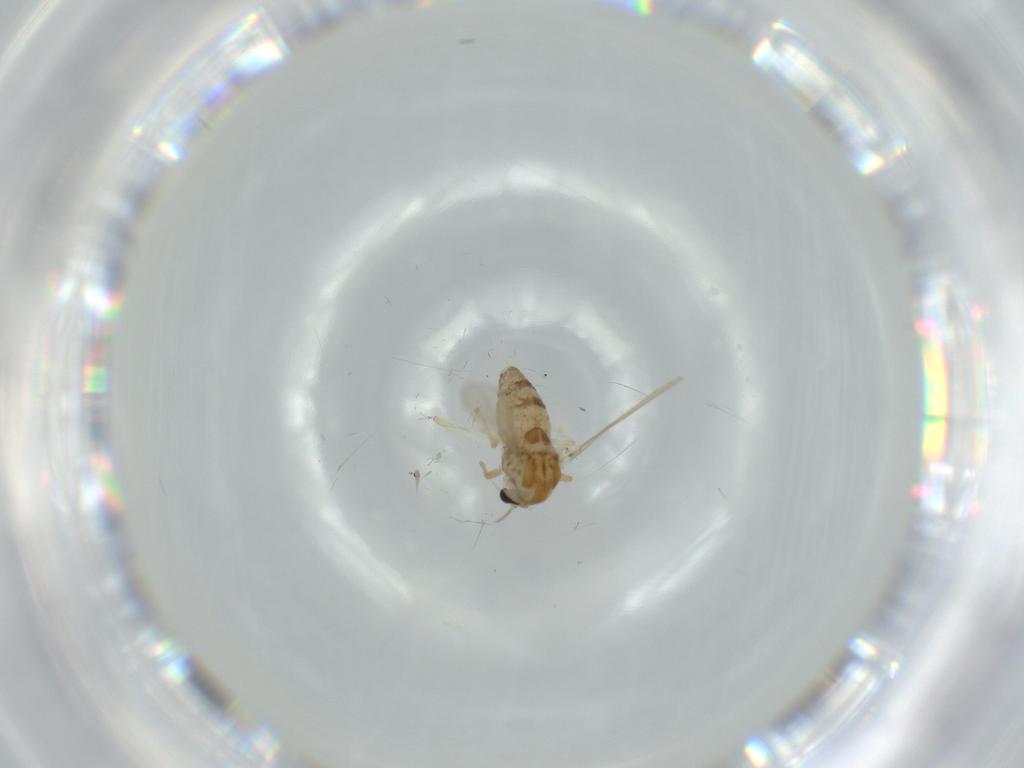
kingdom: Animalia
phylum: Arthropoda
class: Insecta
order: Diptera
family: Chironomidae
